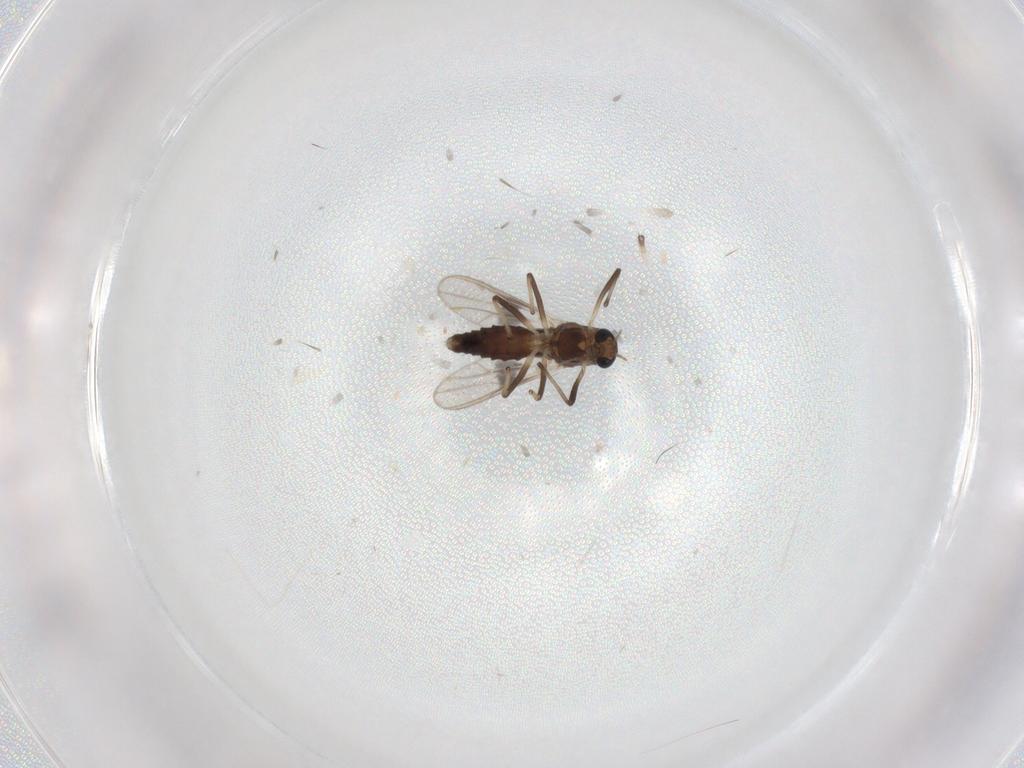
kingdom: Animalia
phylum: Arthropoda
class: Insecta
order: Diptera
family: Chironomidae
